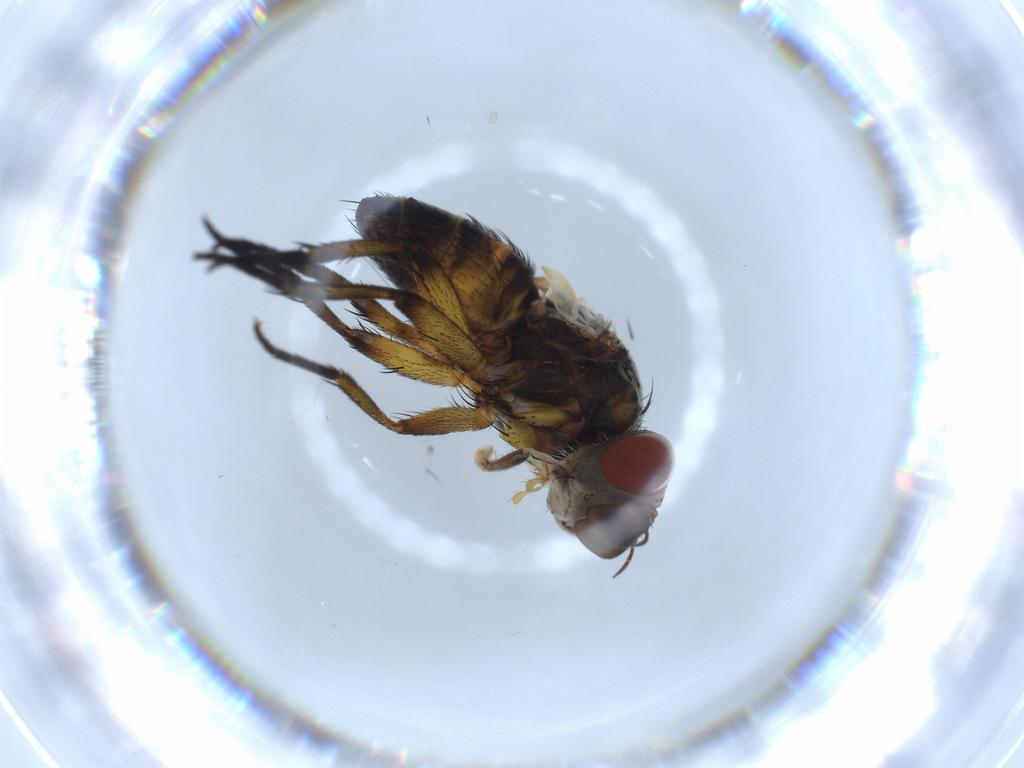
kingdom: Animalia
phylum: Arthropoda
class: Insecta
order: Diptera
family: Tachinidae
